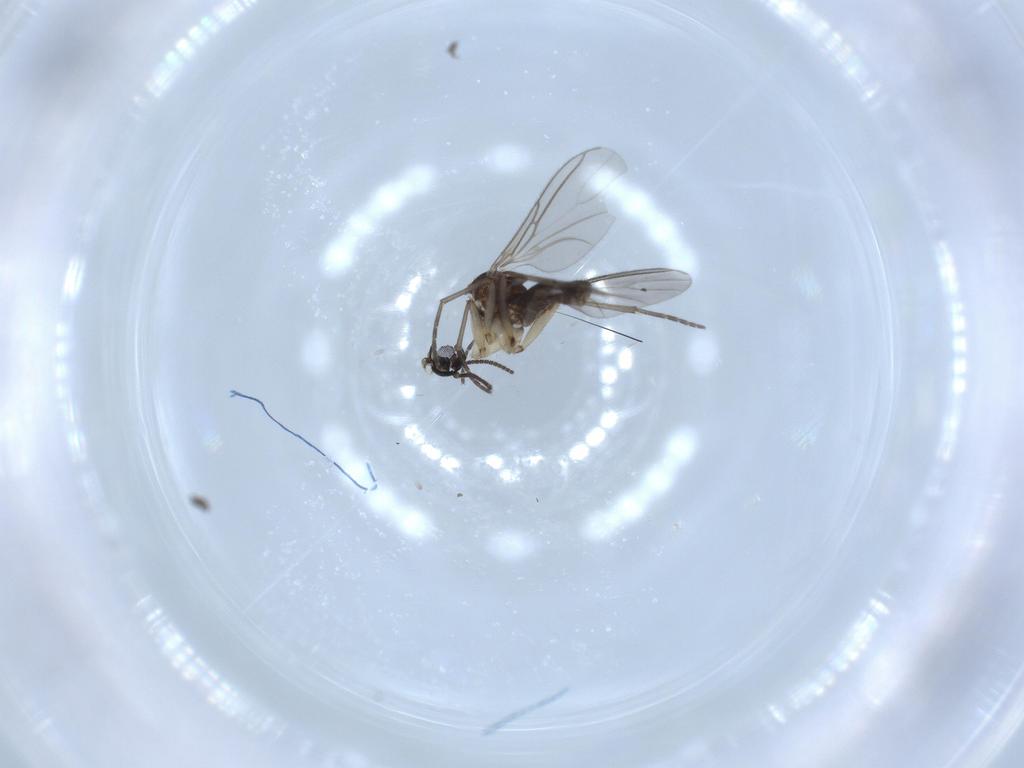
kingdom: Animalia
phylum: Arthropoda
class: Insecta
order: Diptera
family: Sciaridae
